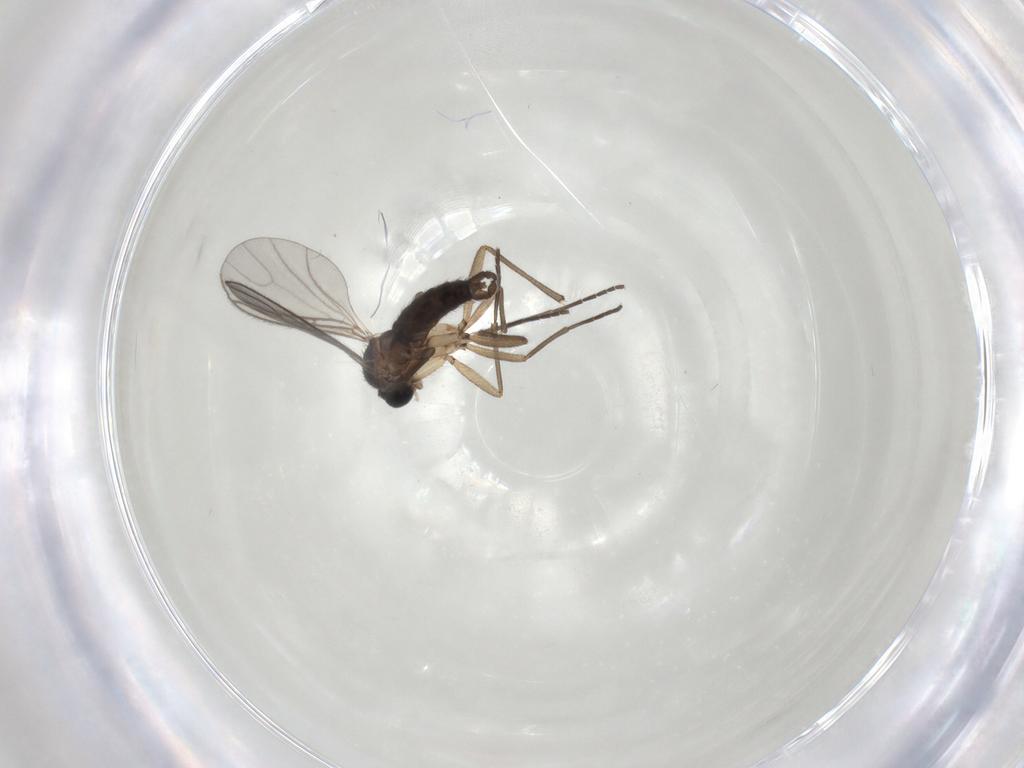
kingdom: Animalia
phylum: Arthropoda
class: Insecta
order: Diptera
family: Sciaridae
